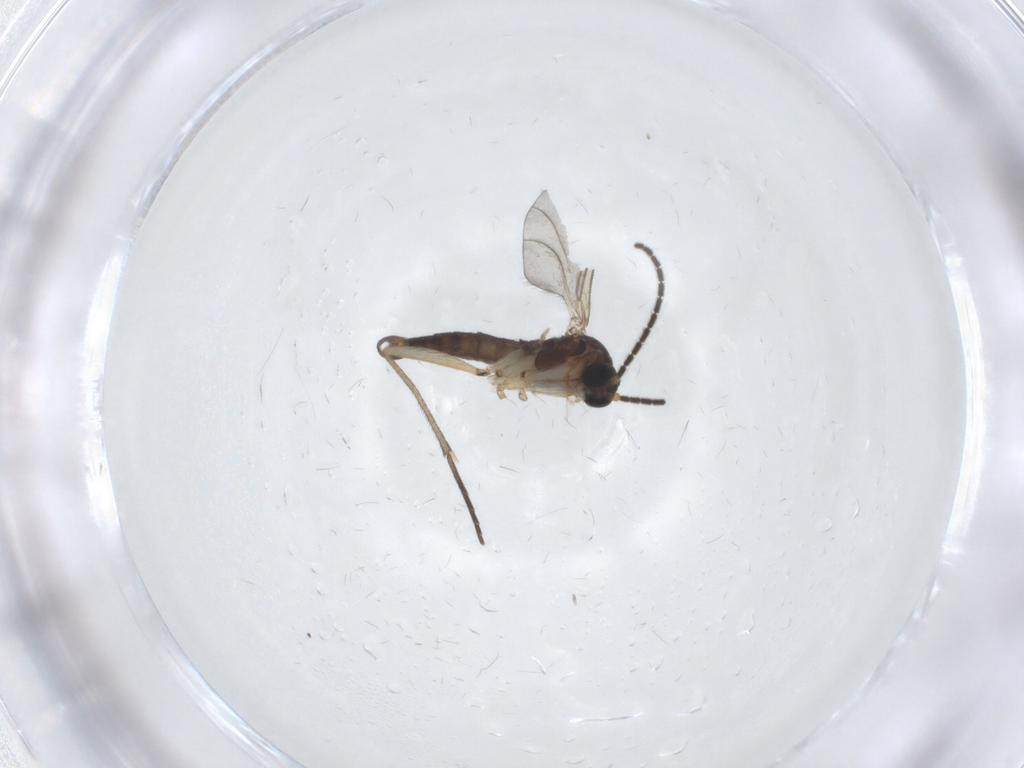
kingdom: Animalia
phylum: Arthropoda
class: Insecta
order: Diptera
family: Sciaridae
